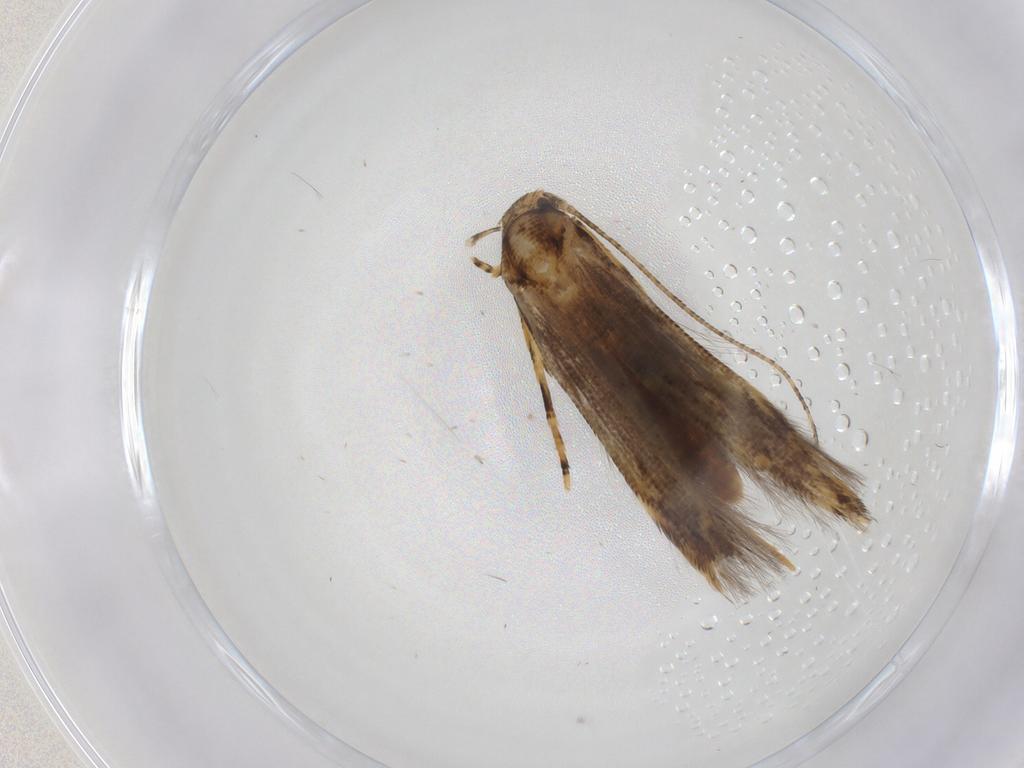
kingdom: Animalia
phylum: Arthropoda
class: Insecta
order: Lepidoptera
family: Cosmopterigidae
